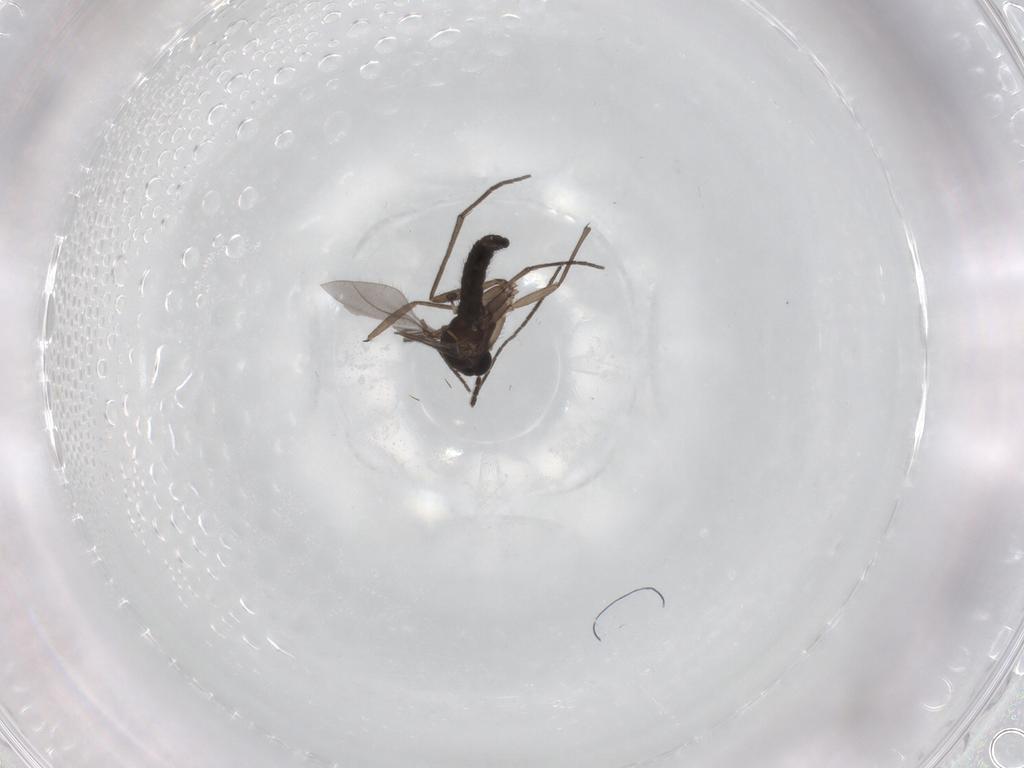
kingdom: Animalia
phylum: Arthropoda
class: Insecta
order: Diptera
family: Sciaridae
